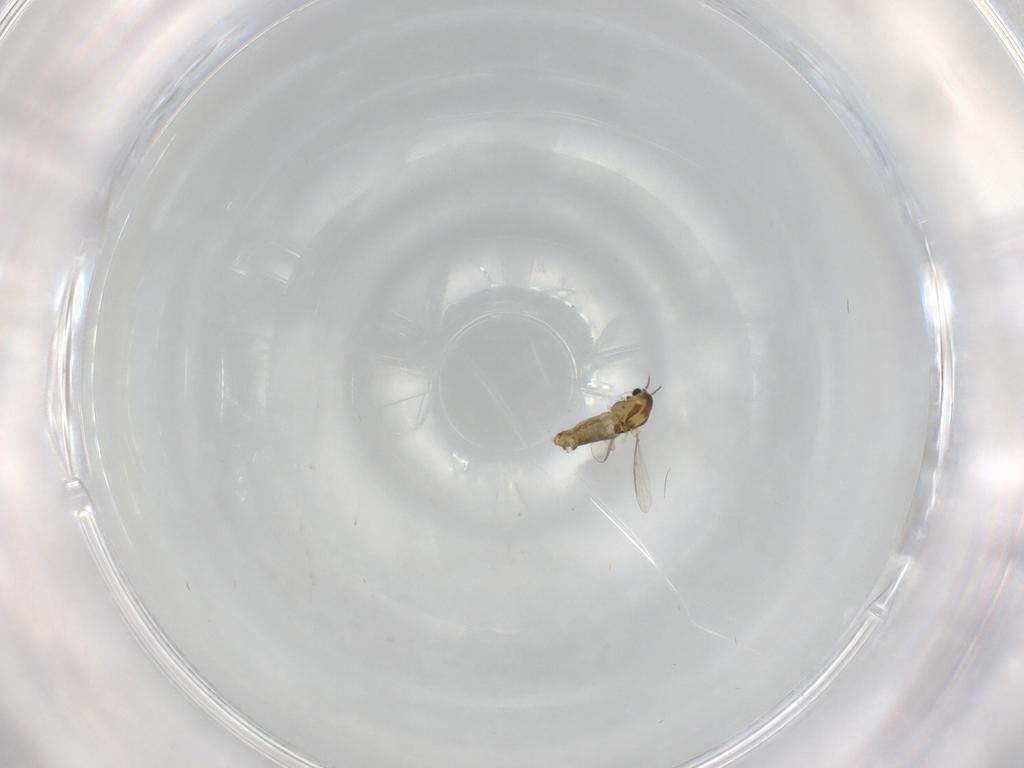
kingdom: Animalia
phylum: Arthropoda
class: Insecta
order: Diptera
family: Chironomidae
